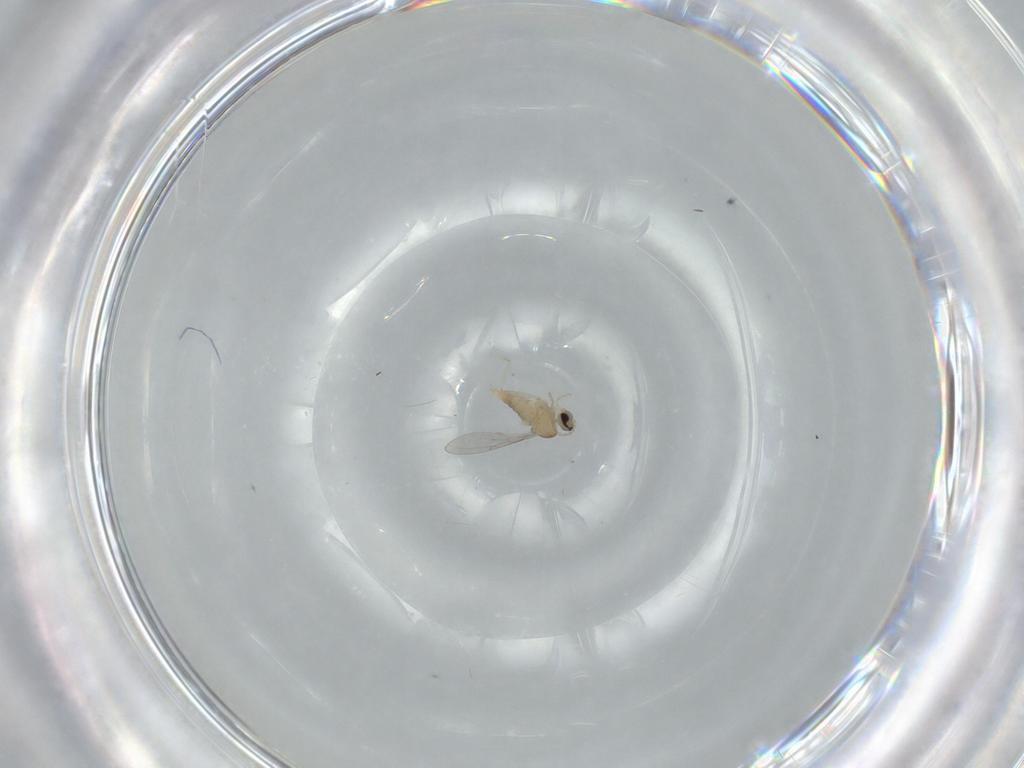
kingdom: Animalia
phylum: Arthropoda
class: Insecta
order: Diptera
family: Cecidomyiidae
